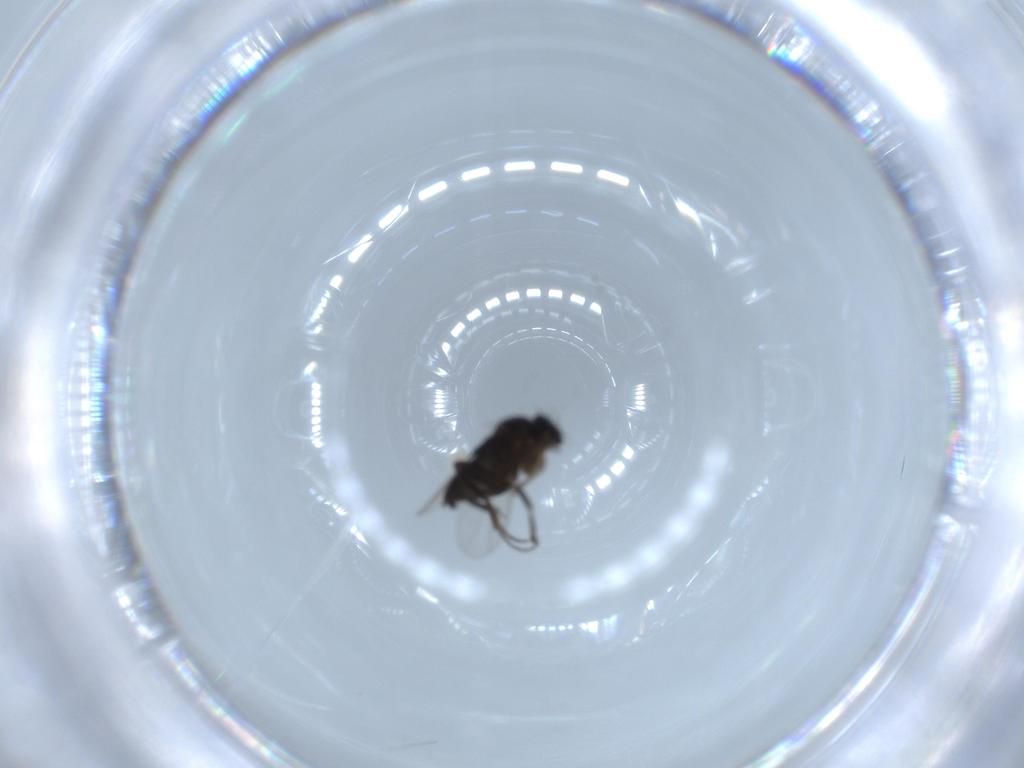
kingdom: Animalia
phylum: Arthropoda
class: Insecta
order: Diptera
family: Phoridae
